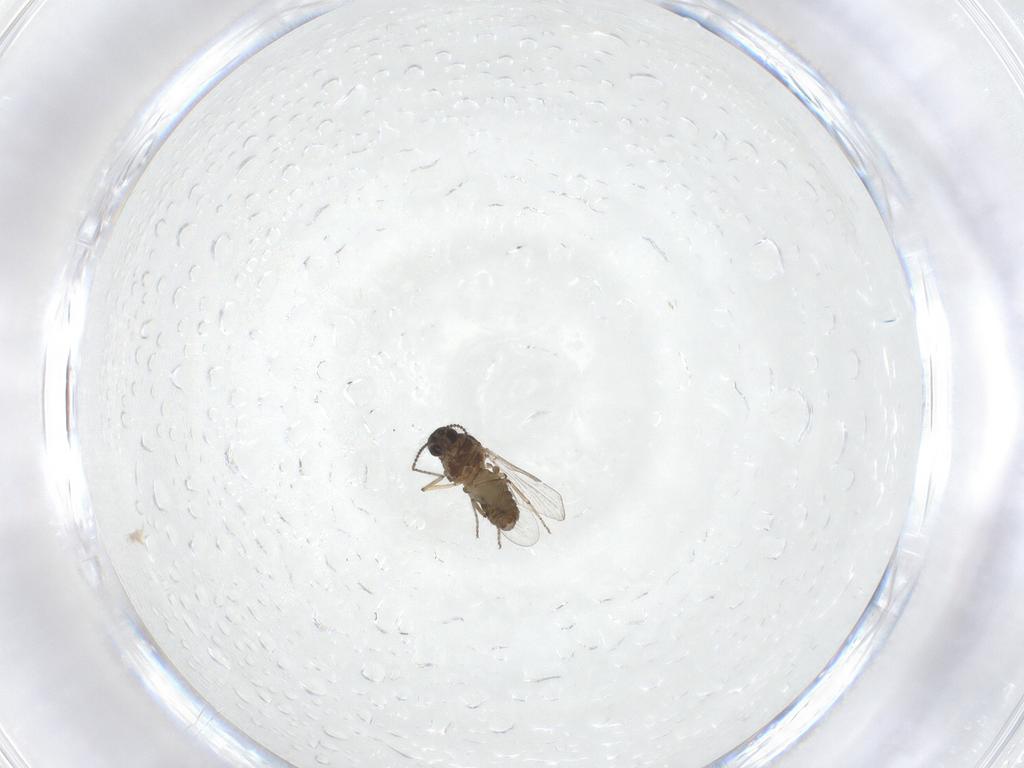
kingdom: Animalia
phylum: Arthropoda
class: Insecta
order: Diptera
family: Ceratopogonidae
